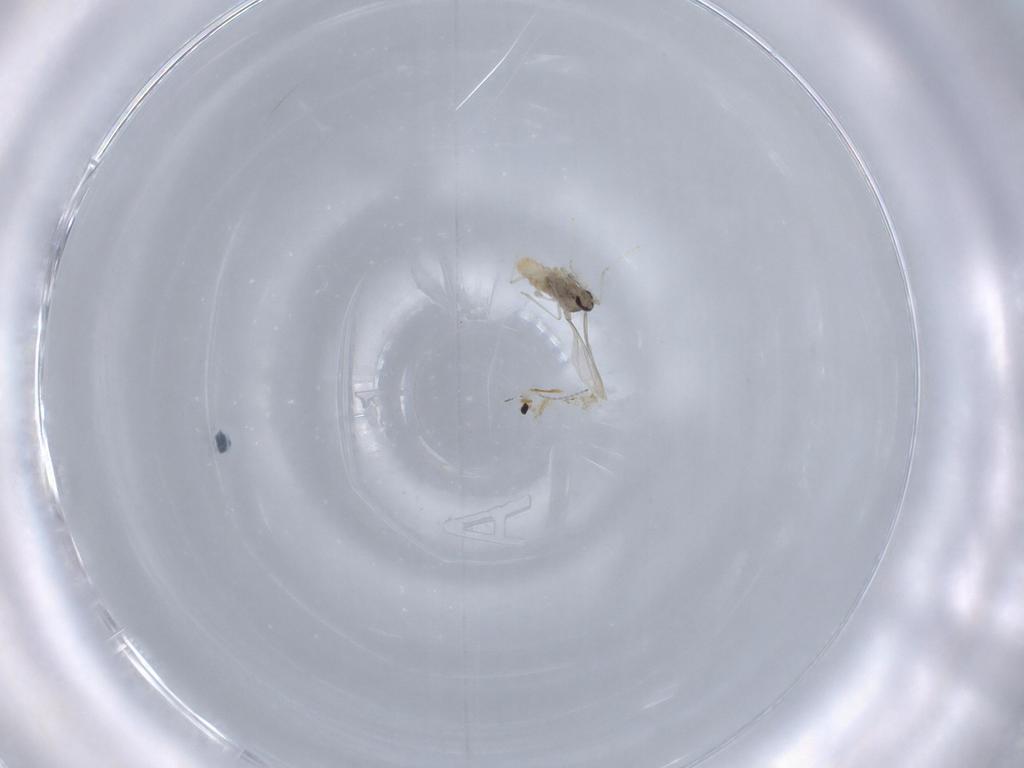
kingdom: Animalia
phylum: Arthropoda
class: Insecta
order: Diptera
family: Cecidomyiidae
